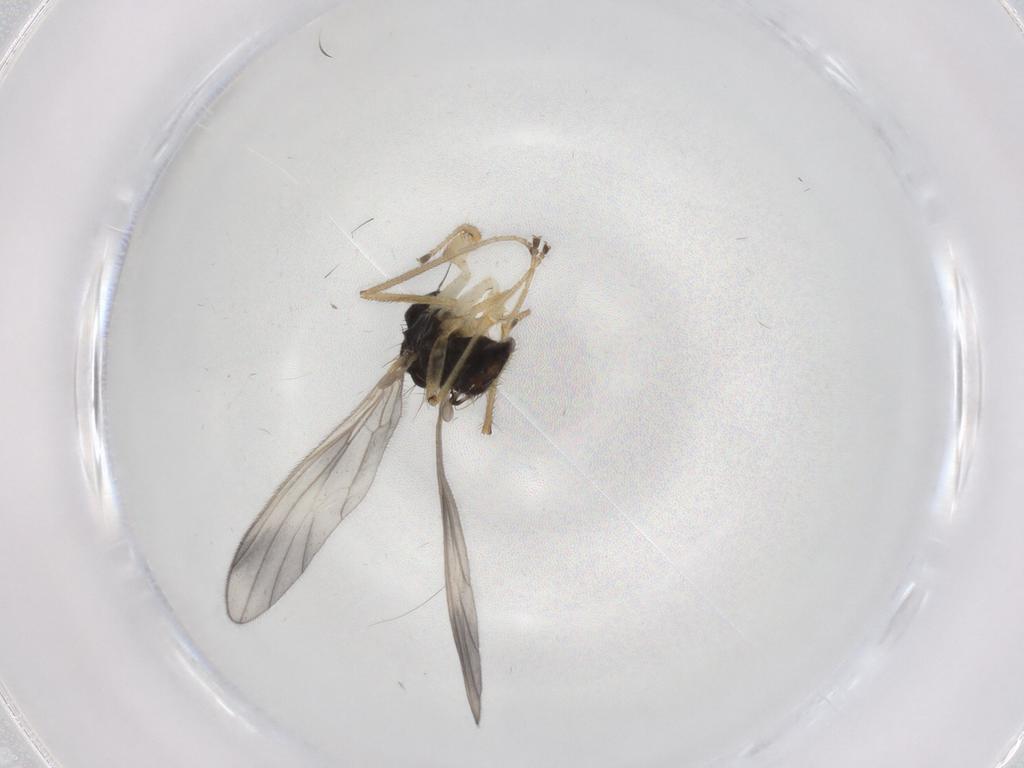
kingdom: Animalia
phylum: Arthropoda
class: Insecta
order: Diptera
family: Empididae
